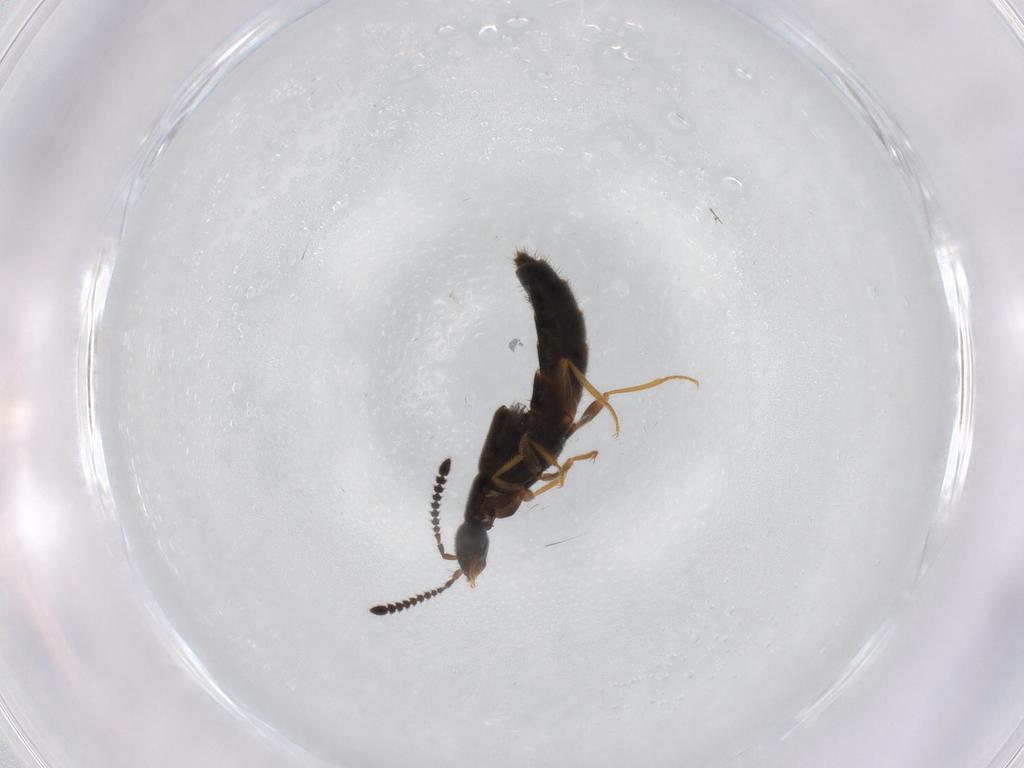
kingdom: Animalia
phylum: Arthropoda
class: Insecta
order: Coleoptera
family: Staphylinidae
